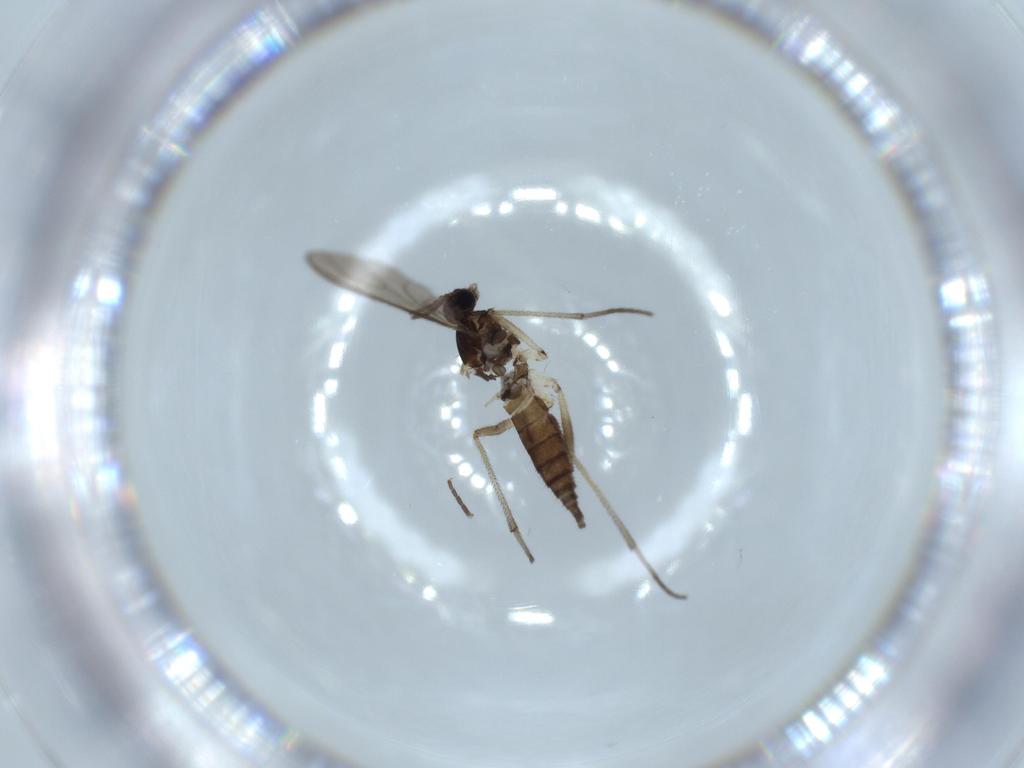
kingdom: Animalia
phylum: Arthropoda
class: Insecta
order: Diptera
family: Sciaridae
